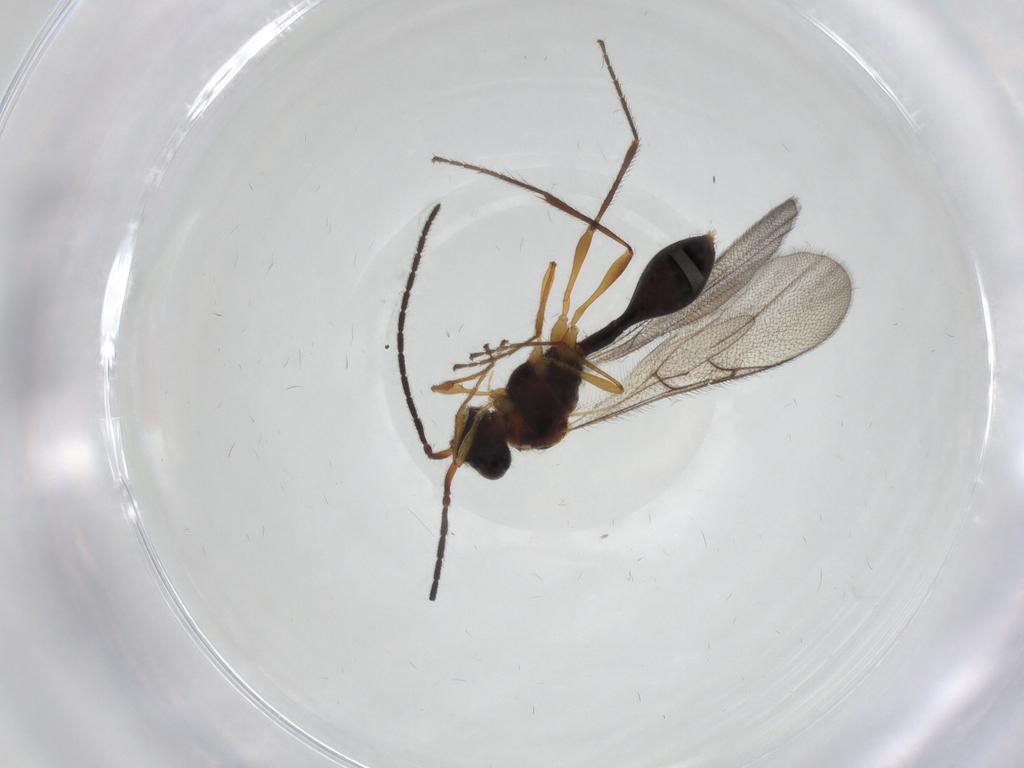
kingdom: Animalia
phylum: Arthropoda
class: Insecta
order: Hymenoptera
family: Diapriidae
